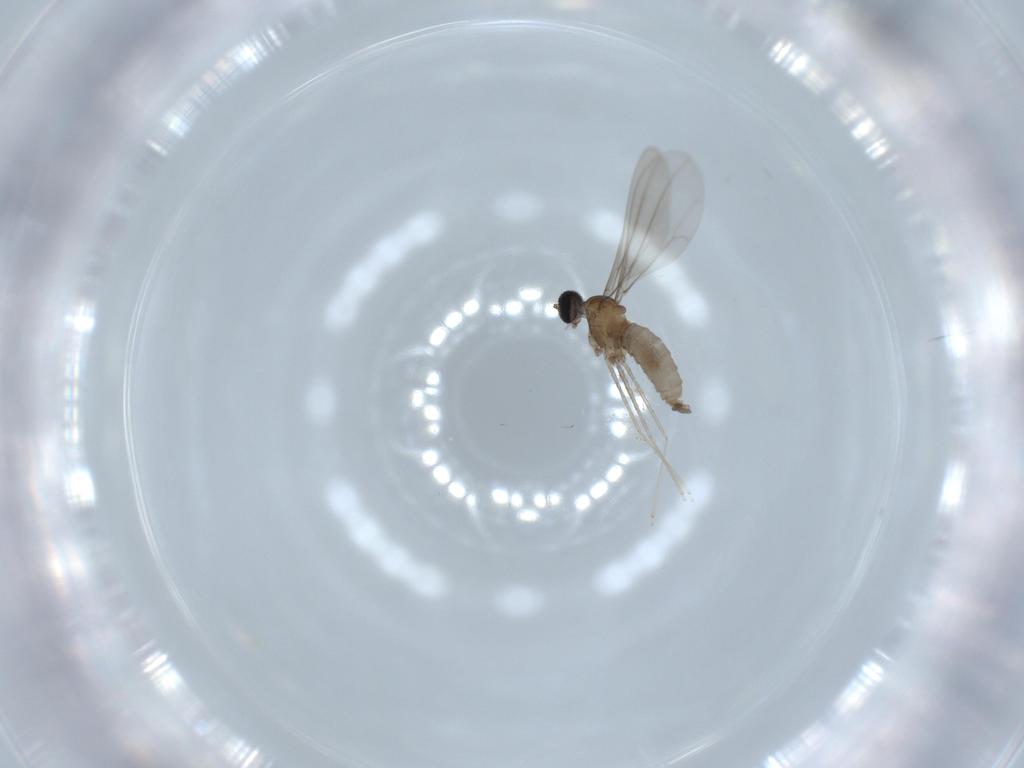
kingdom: Animalia
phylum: Arthropoda
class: Insecta
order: Diptera
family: Cecidomyiidae
